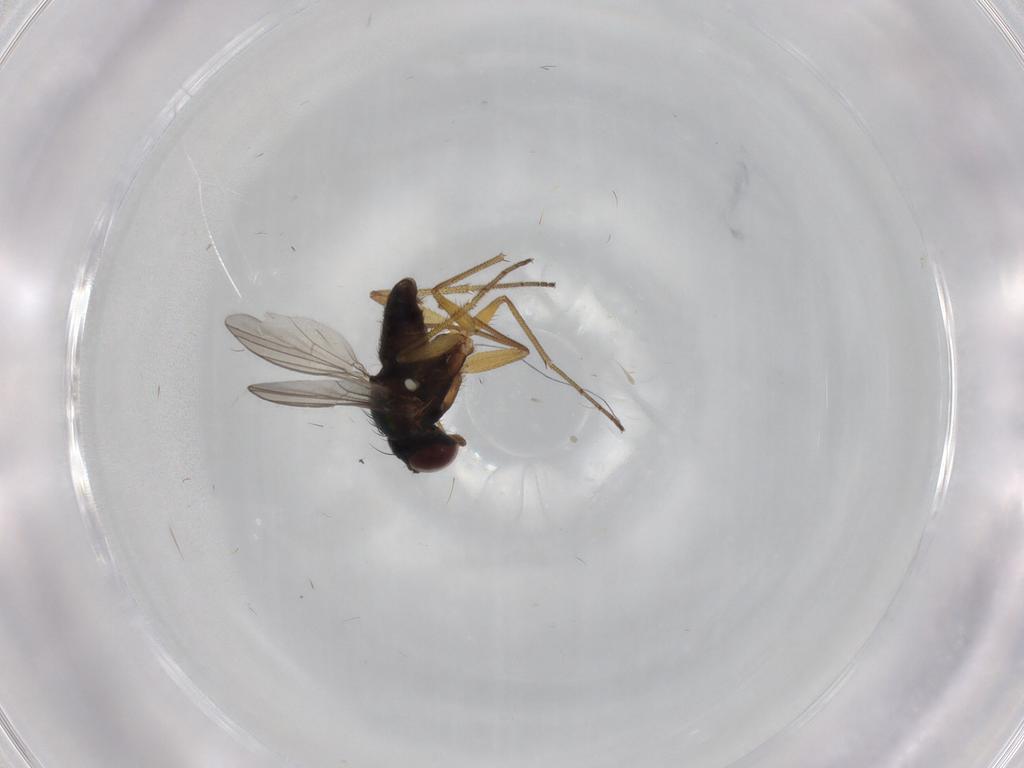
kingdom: Animalia
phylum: Arthropoda
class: Insecta
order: Diptera
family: Dolichopodidae
